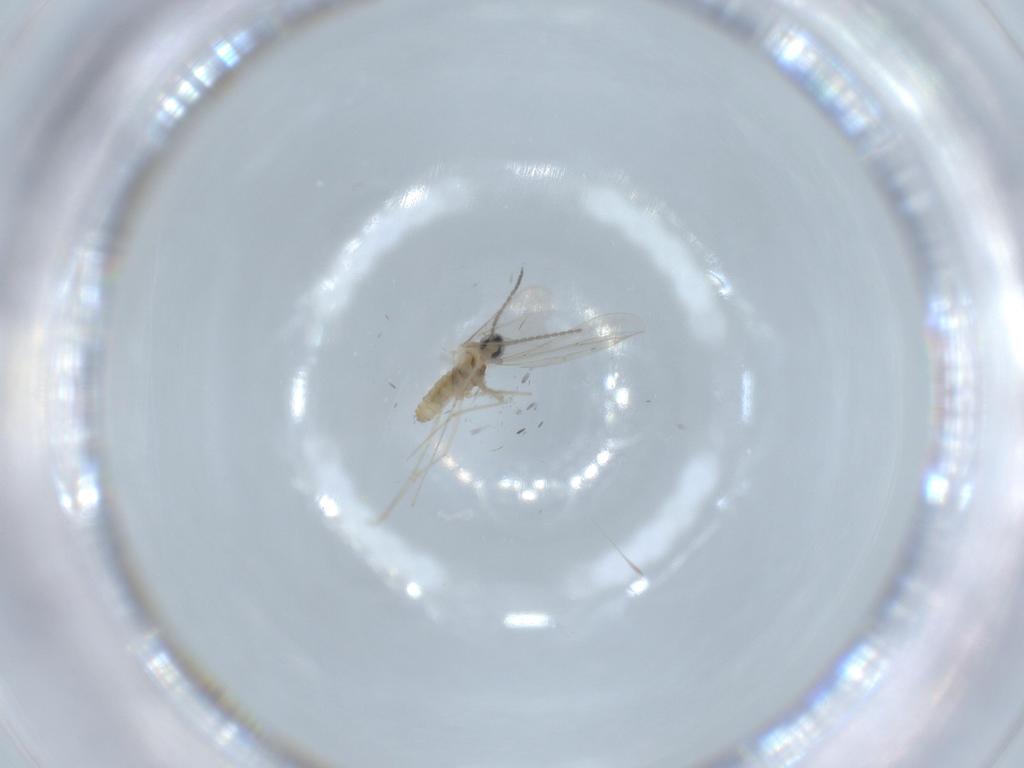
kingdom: Animalia
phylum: Arthropoda
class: Insecta
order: Diptera
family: Cecidomyiidae
